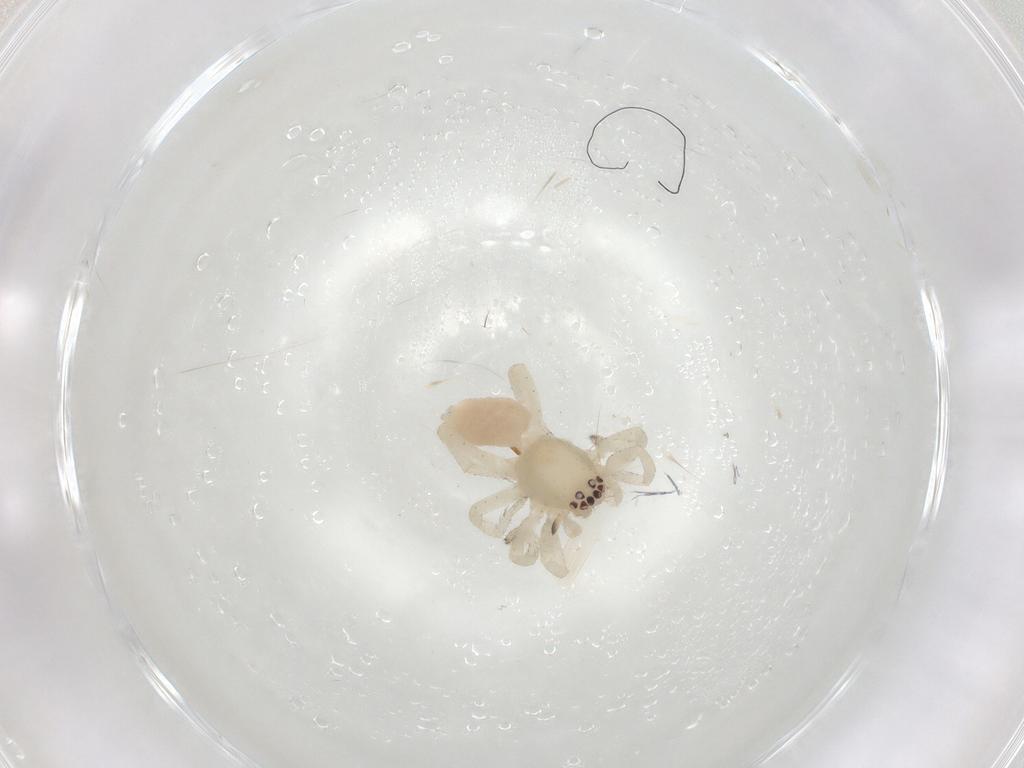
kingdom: Animalia
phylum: Arthropoda
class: Arachnida
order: Araneae
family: Clubionidae
